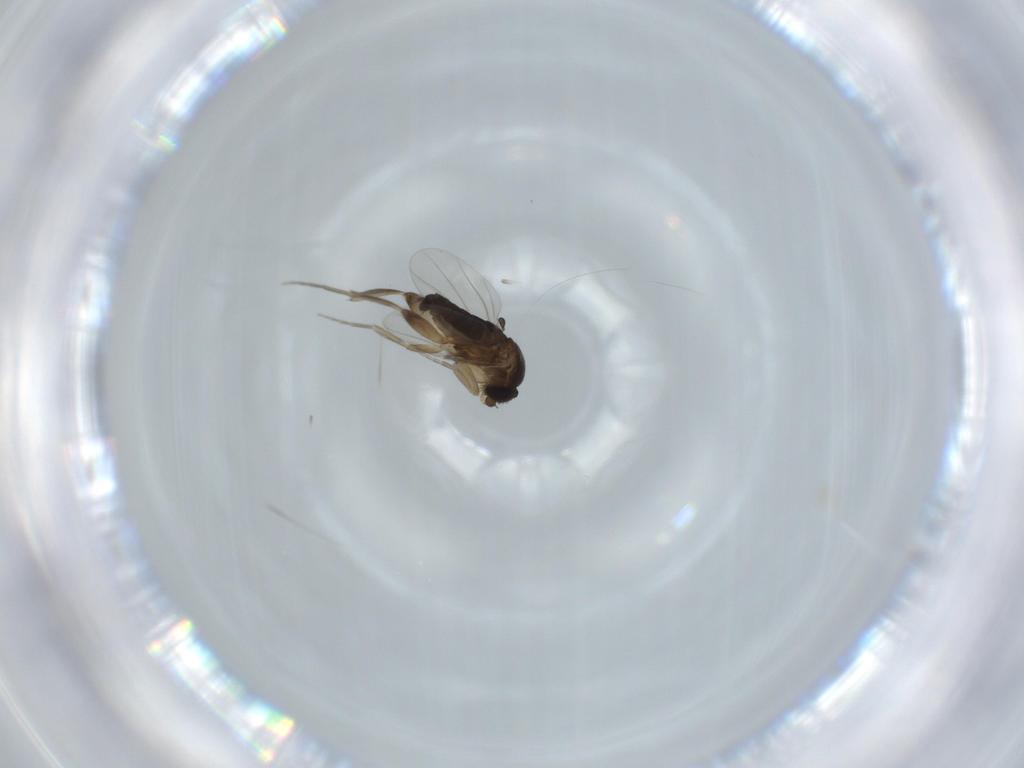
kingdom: Animalia
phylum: Arthropoda
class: Insecta
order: Diptera
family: Phoridae
